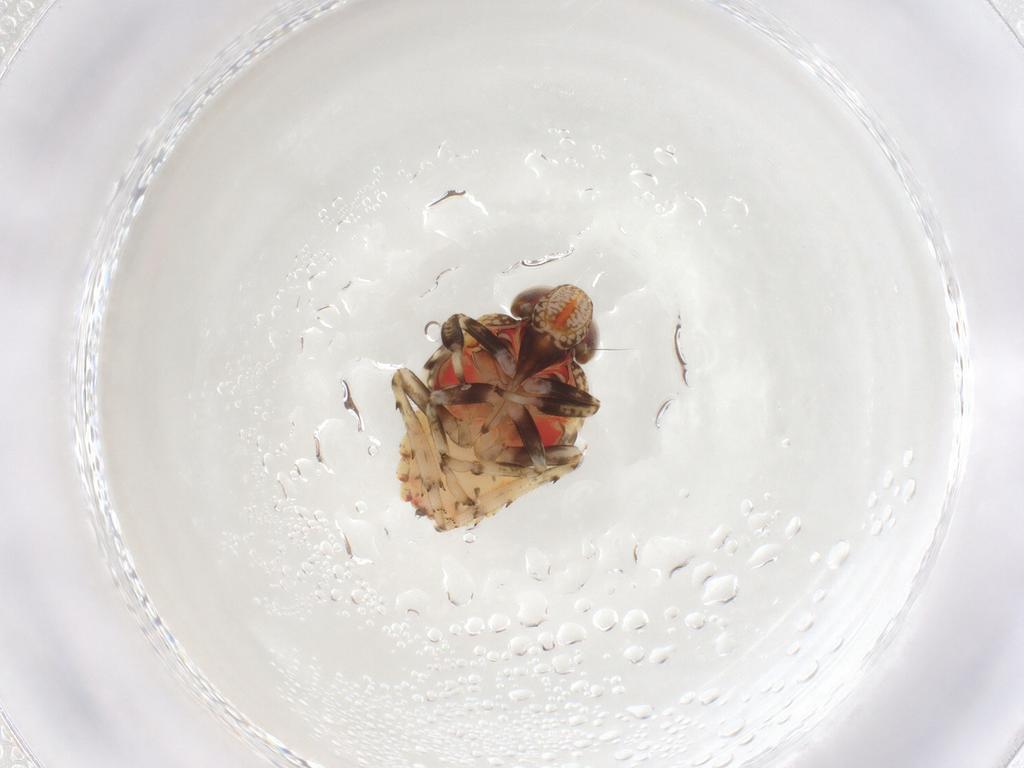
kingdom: Animalia
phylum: Arthropoda
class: Insecta
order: Hemiptera
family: Issidae
